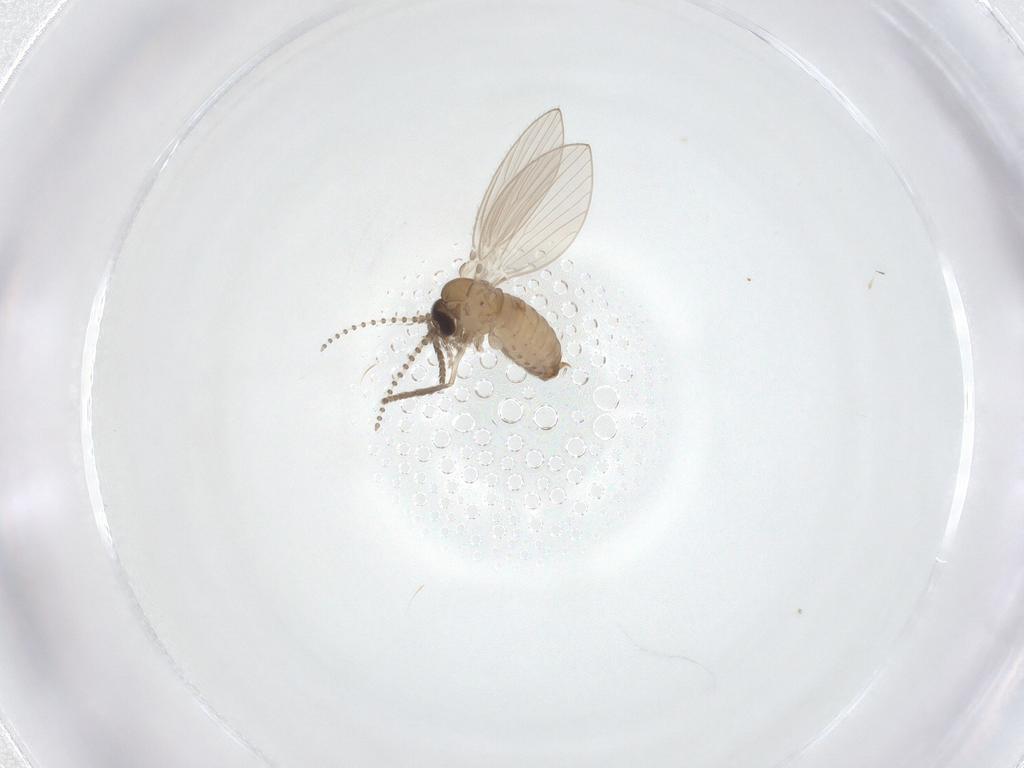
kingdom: Animalia
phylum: Arthropoda
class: Insecta
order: Diptera
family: Psychodidae
